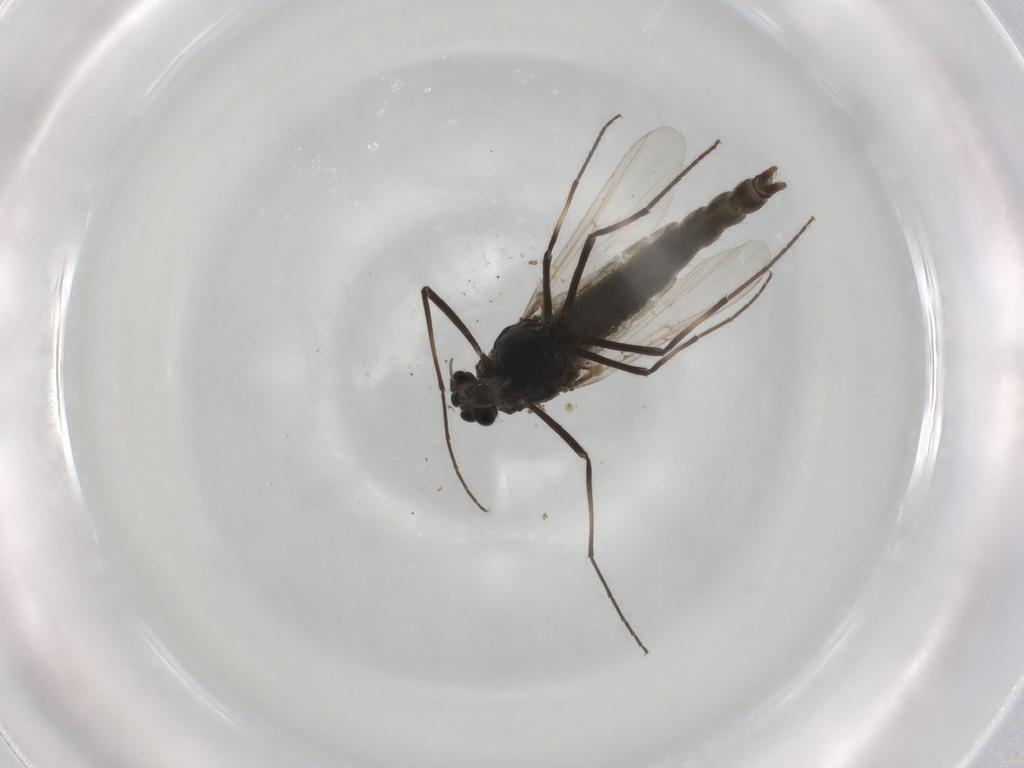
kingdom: Animalia
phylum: Arthropoda
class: Insecta
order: Diptera
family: Chironomidae
